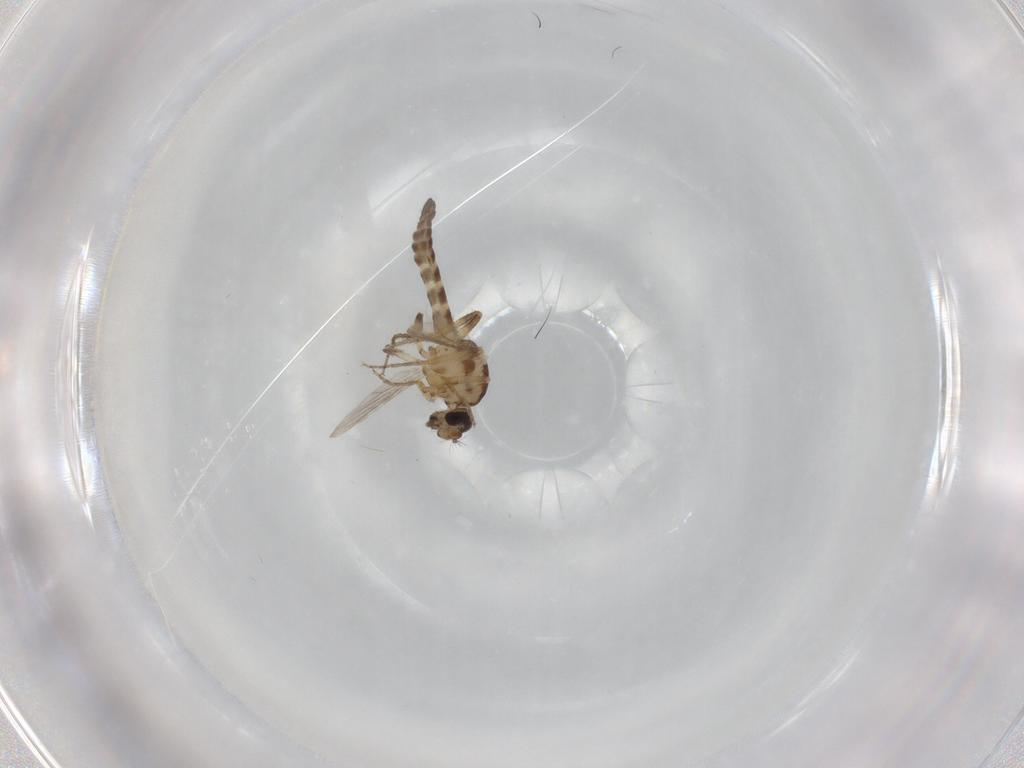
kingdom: Animalia
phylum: Arthropoda
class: Insecta
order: Diptera
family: Ceratopogonidae
